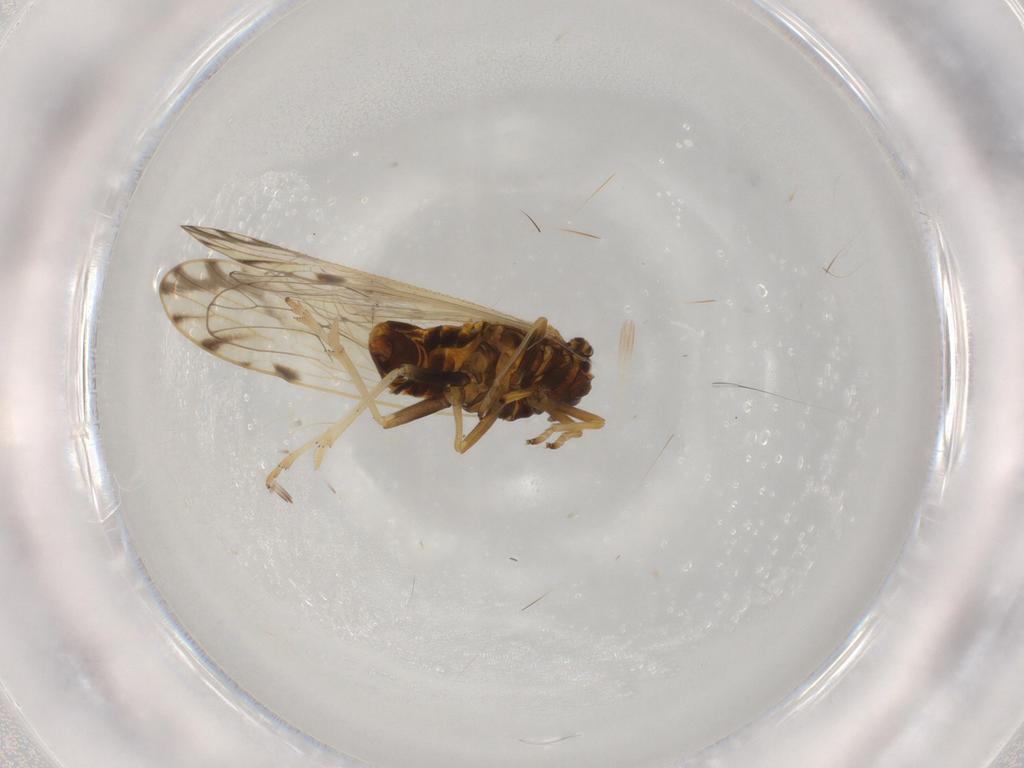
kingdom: Animalia
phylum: Arthropoda
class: Insecta
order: Hemiptera
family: Delphacidae
